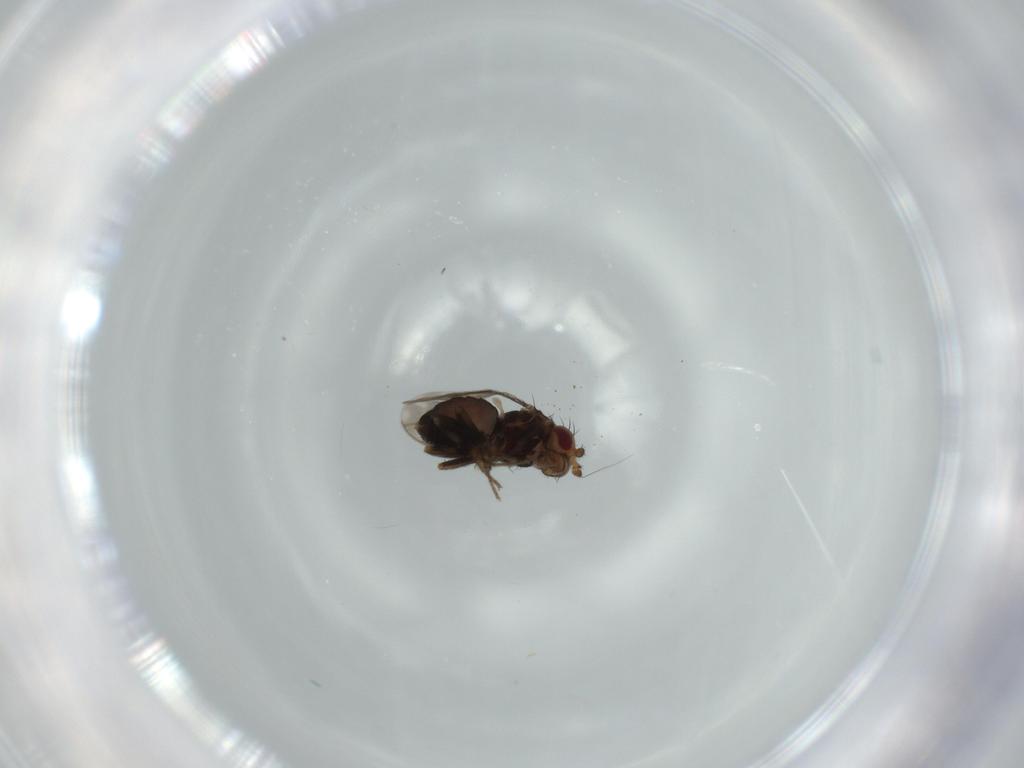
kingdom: Animalia
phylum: Arthropoda
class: Insecta
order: Diptera
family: Sphaeroceridae
